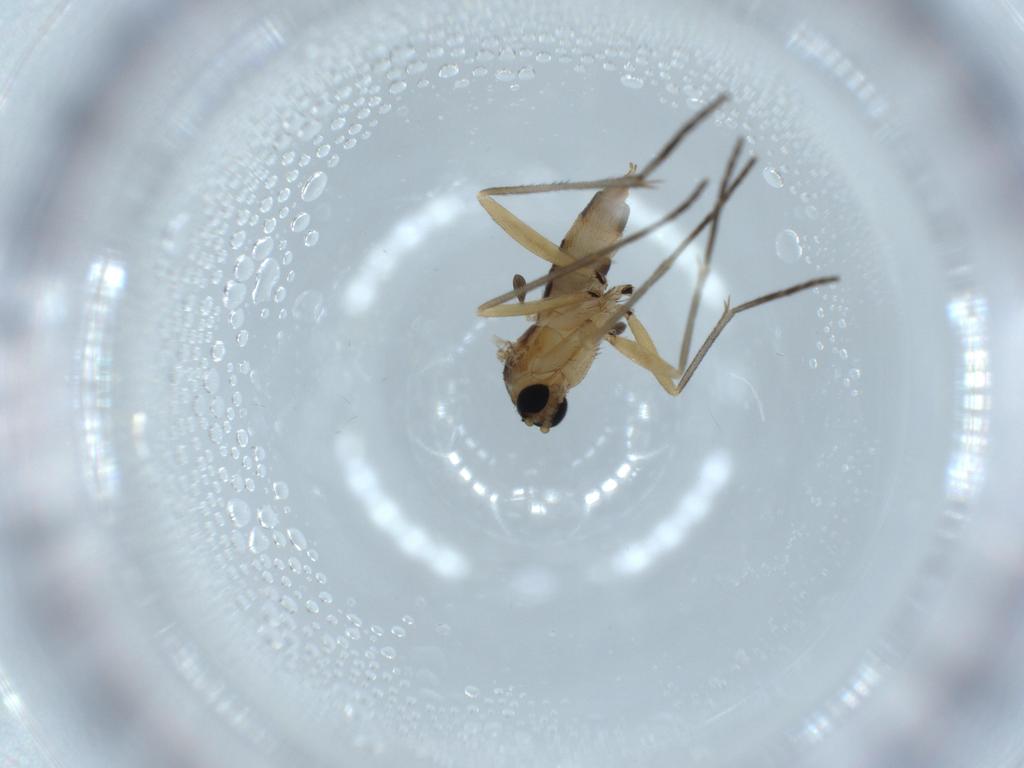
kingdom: Animalia
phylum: Arthropoda
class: Insecta
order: Diptera
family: Sciaridae
